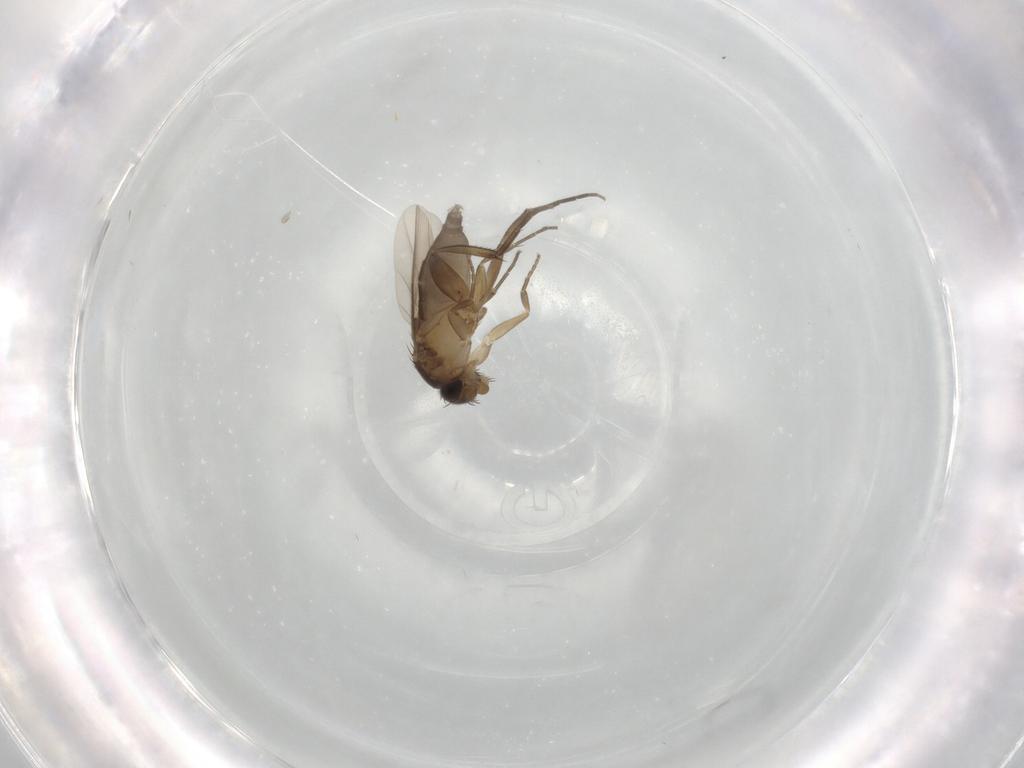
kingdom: Animalia
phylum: Arthropoda
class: Insecta
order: Diptera
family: Phoridae
